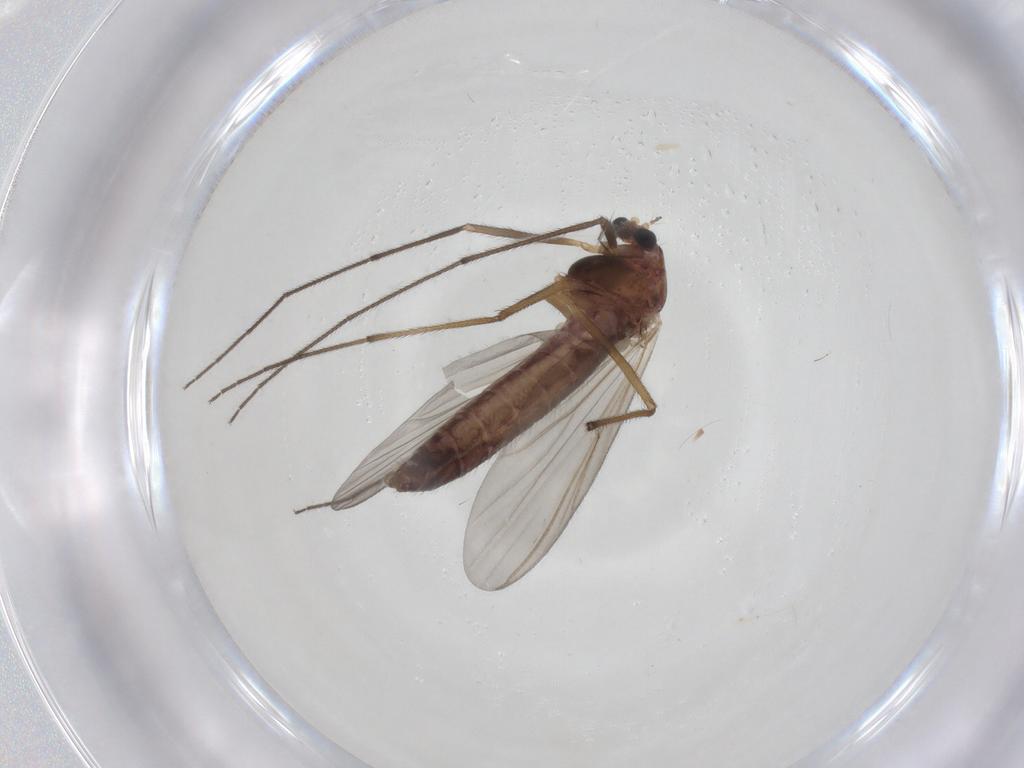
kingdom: Animalia
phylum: Arthropoda
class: Insecta
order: Diptera
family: Chironomidae
